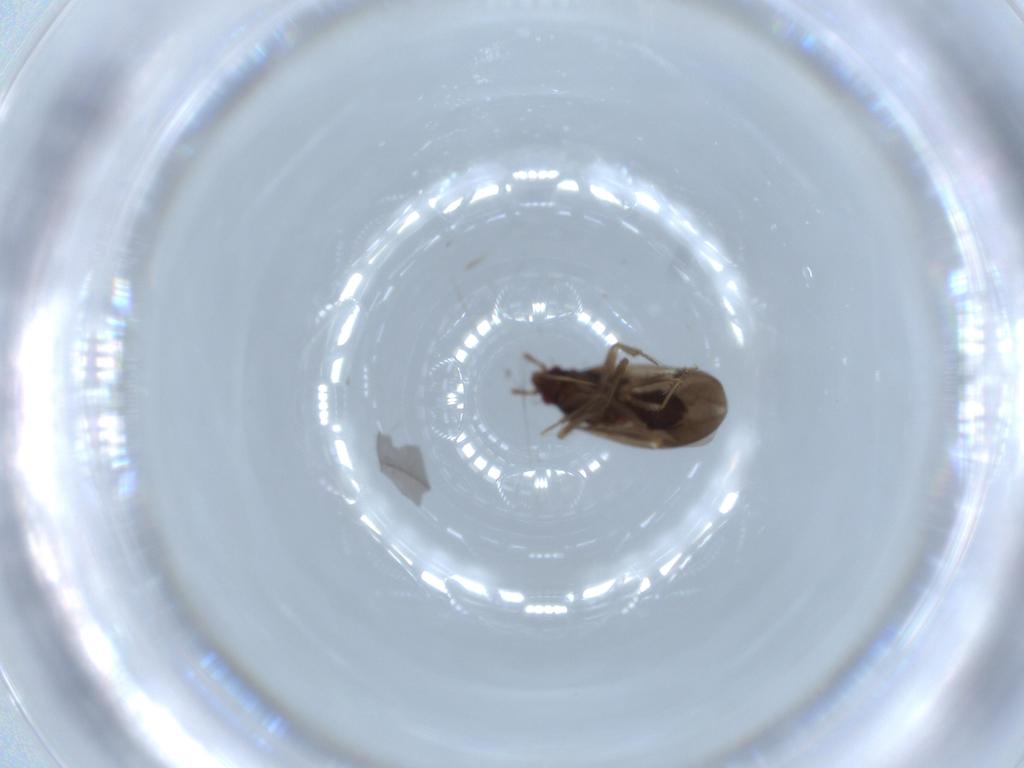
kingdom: Animalia
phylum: Arthropoda
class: Insecta
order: Hemiptera
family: Ceratocombidae
